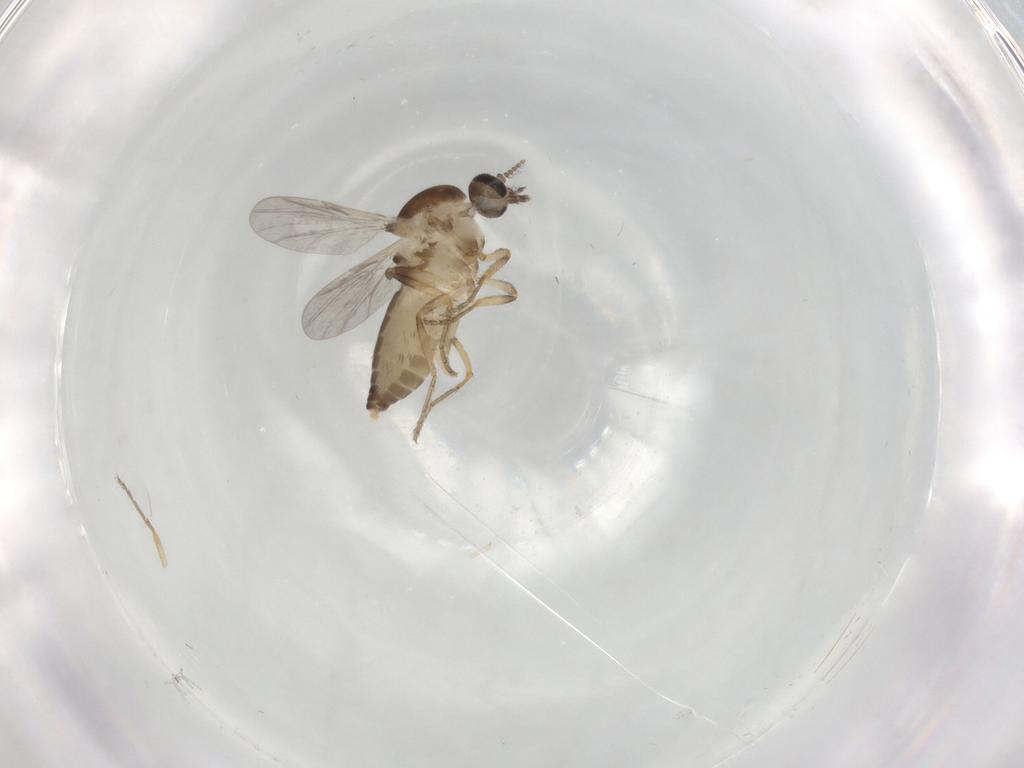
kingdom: Animalia
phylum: Arthropoda
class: Insecta
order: Diptera
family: Ceratopogonidae
